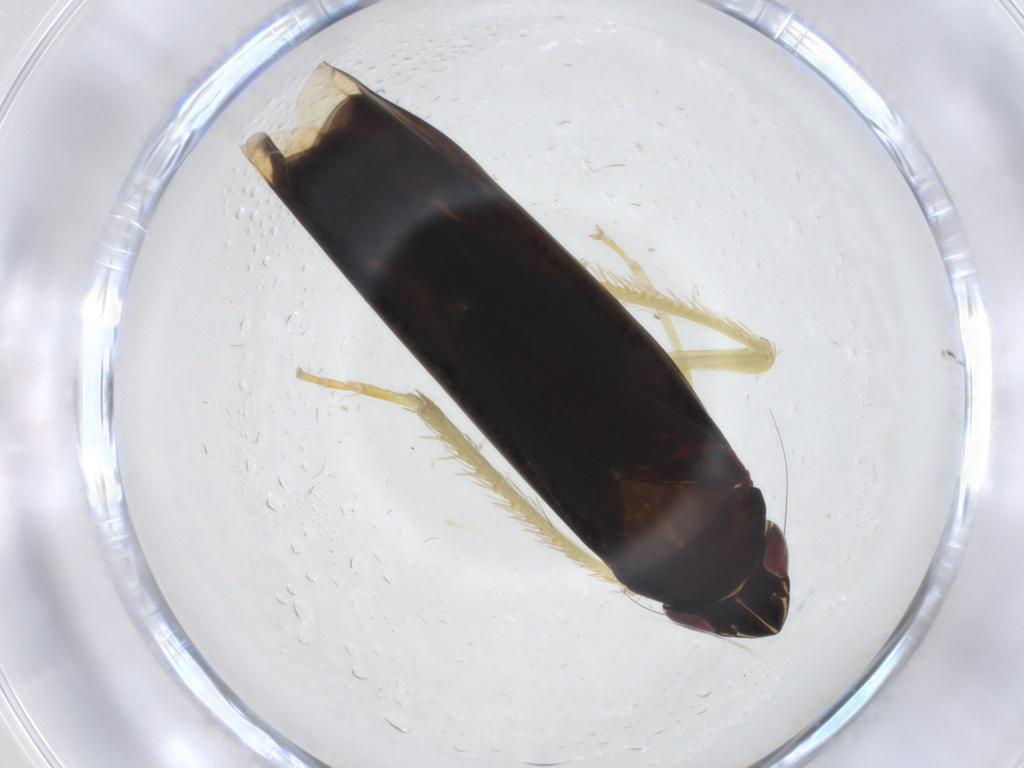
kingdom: Animalia
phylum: Arthropoda
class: Insecta
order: Hemiptera
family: Cicadellidae
